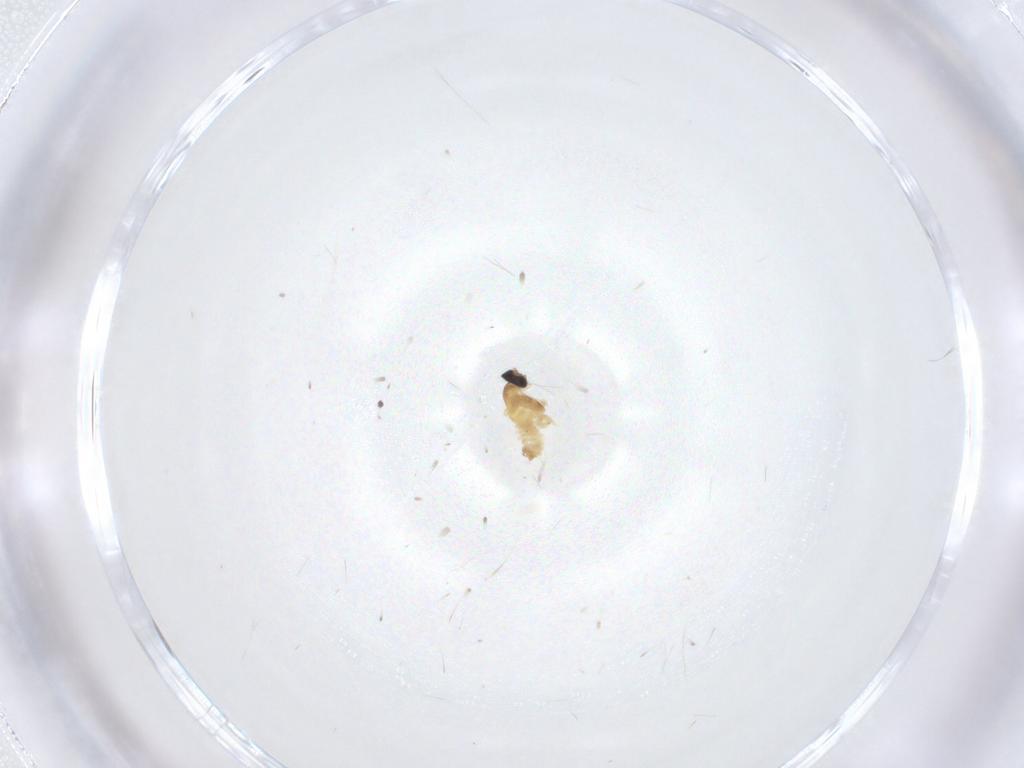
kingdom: Animalia
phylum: Arthropoda
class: Insecta
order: Diptera
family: Cecidomyiidae
